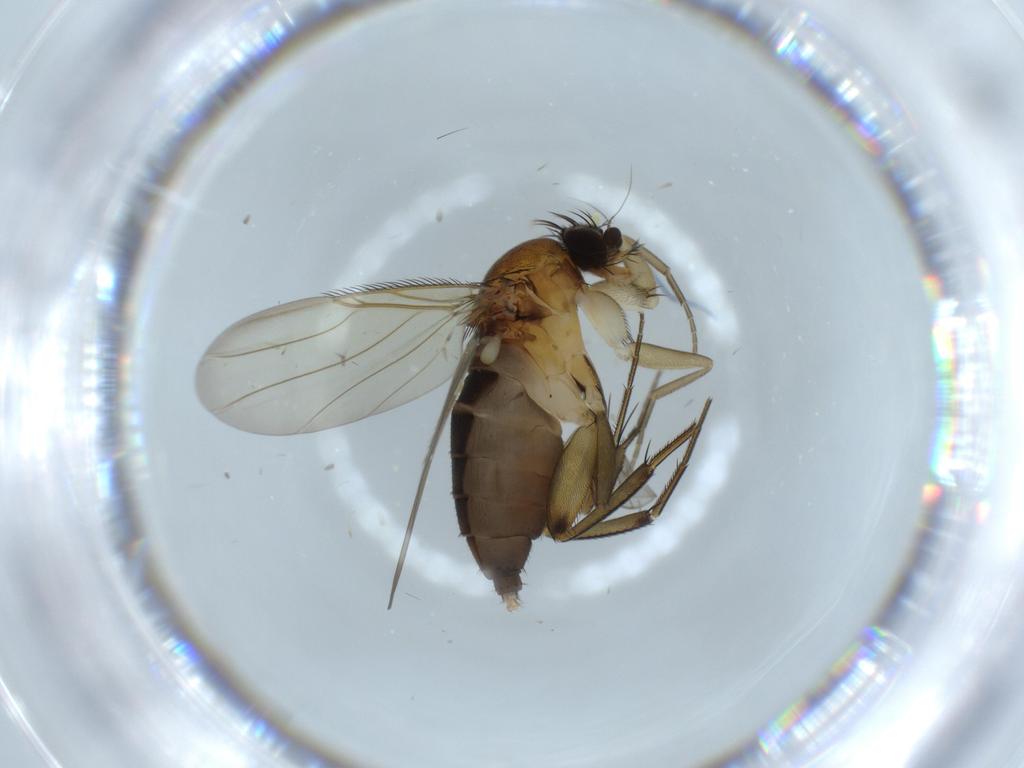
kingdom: Animalia
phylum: Arthropoda
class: Insecta
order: Diptera
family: Phoridae
